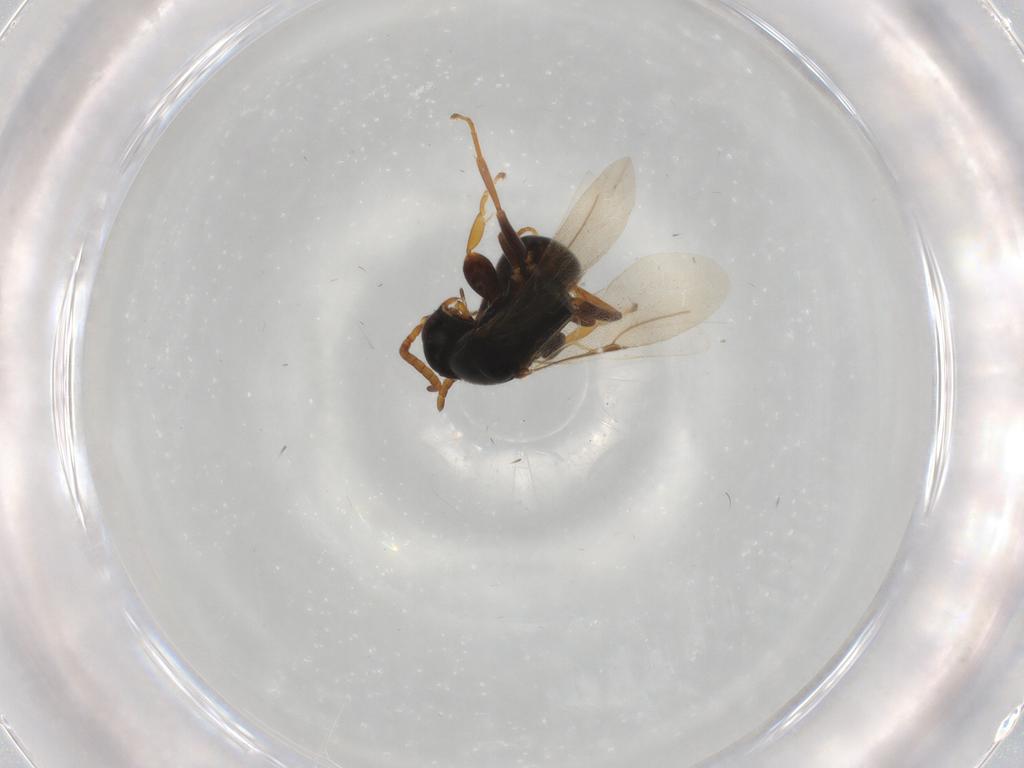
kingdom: Animalia
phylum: Arthropoda
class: Insecta
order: Hymenoptera
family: Bethylidae
